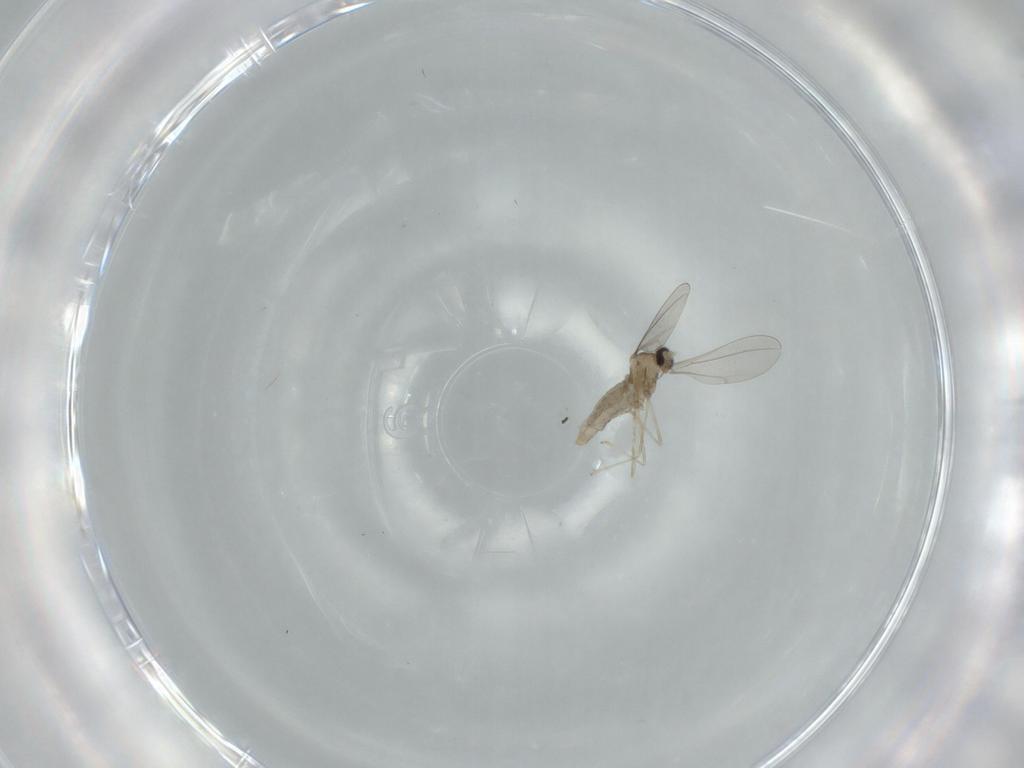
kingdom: Animalia
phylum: Arthropoda
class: Insecta
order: Diptera
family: Cecidomyiidae
